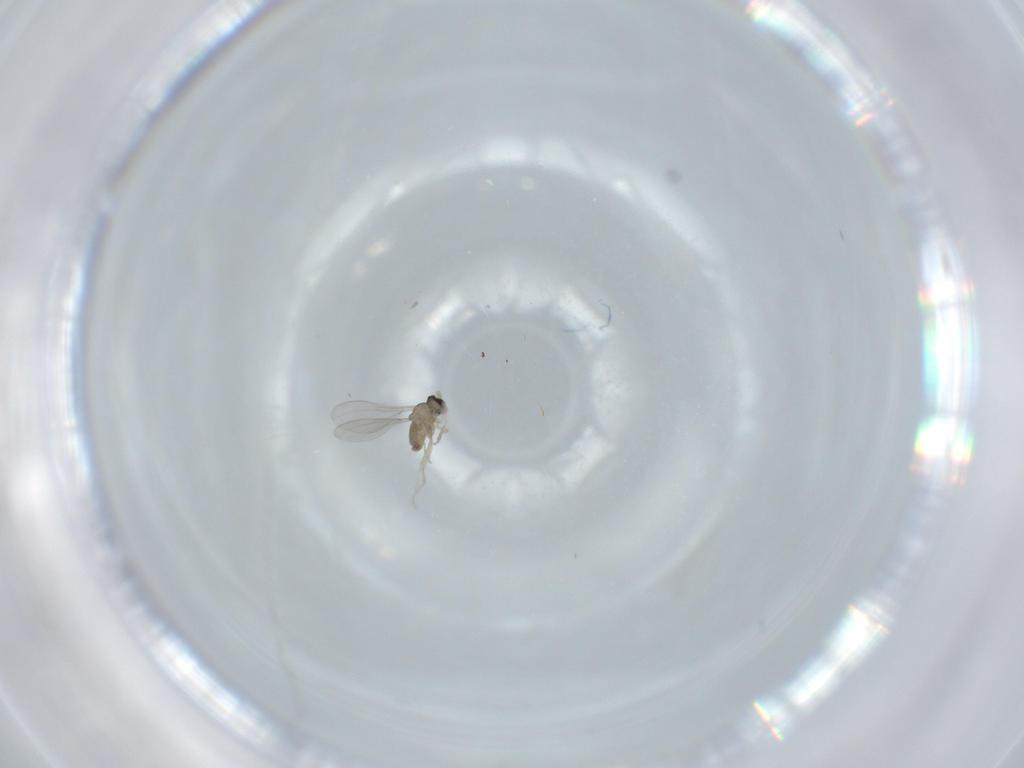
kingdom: Animalia
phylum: Arthropoda
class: Insecta
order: Diptera
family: Cecidomyiidae
